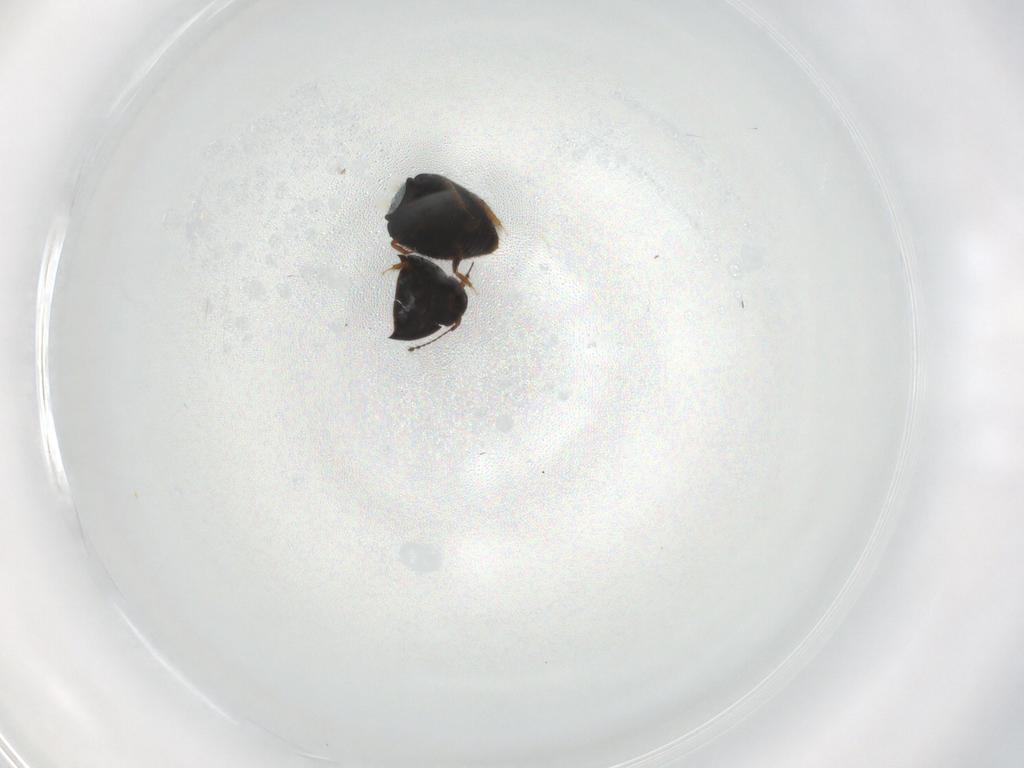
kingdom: Animalia
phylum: Arthropoda
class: Insecta
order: Coleoptera
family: Ptiliidae
